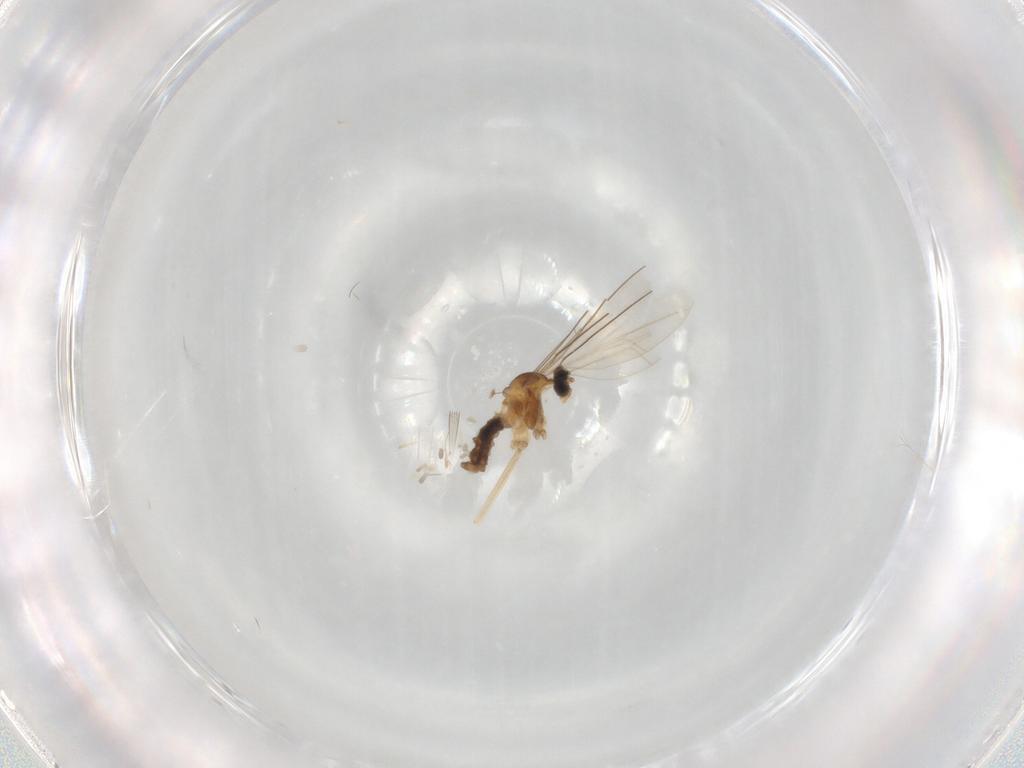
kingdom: Animalia
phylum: Arthropoda
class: Insecta
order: Diptera
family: Cecidomyiidae
